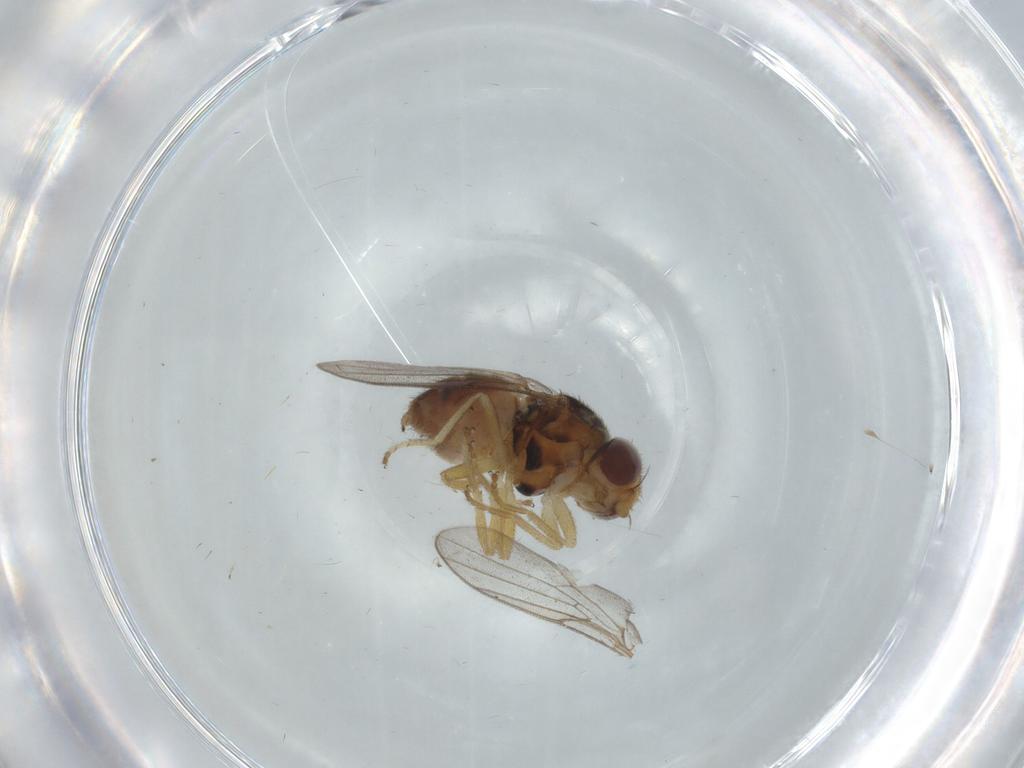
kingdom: Animalia
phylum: Arthropoda
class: Insecta
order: Diptera
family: Chloropidae
